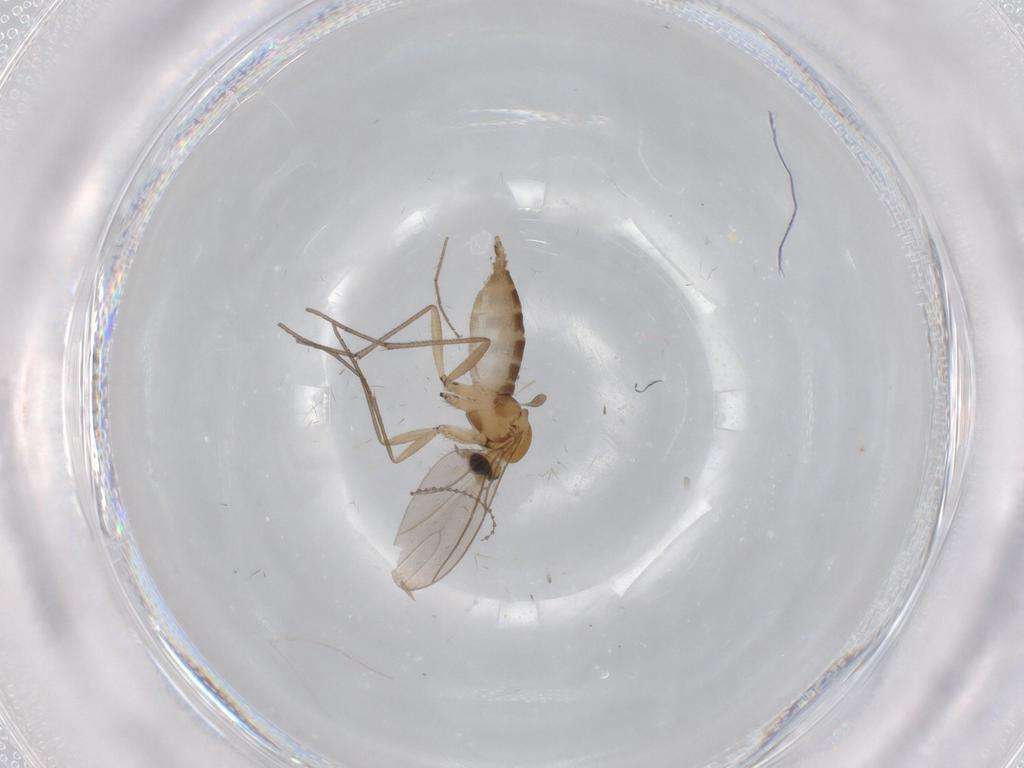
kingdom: Animalia
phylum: Arthropoda
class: Insecta
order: Diptera
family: Sciaridae
